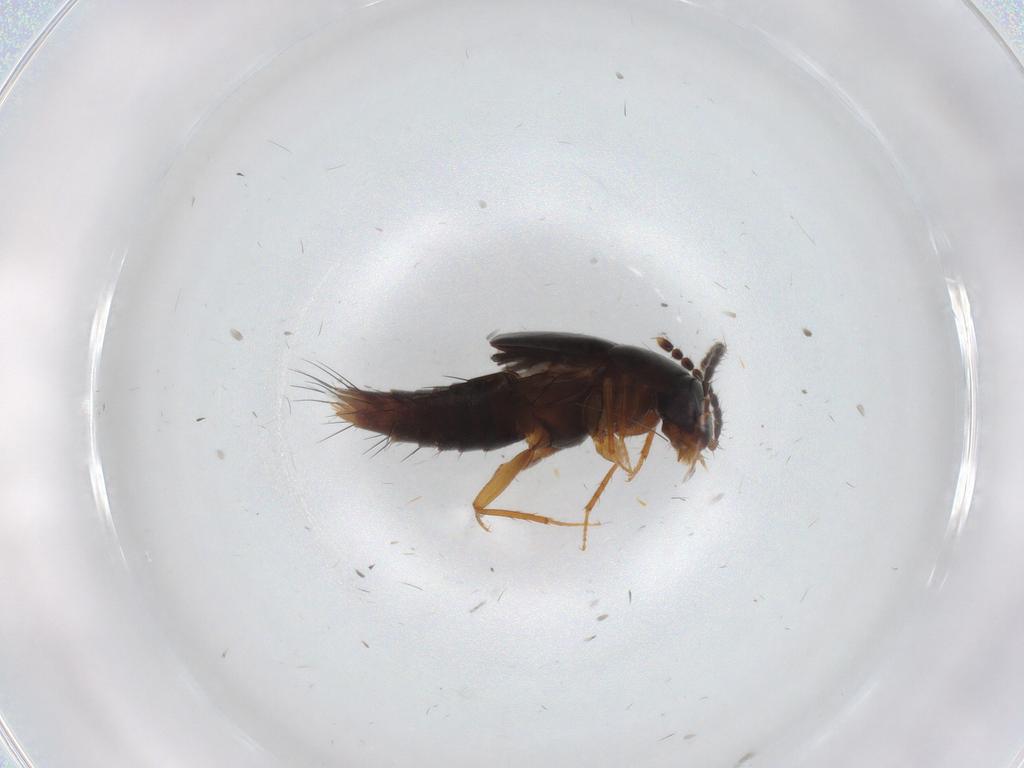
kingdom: Animalia
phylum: Arthropoda
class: Insecta
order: Coleoptera
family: Staphylinidae
